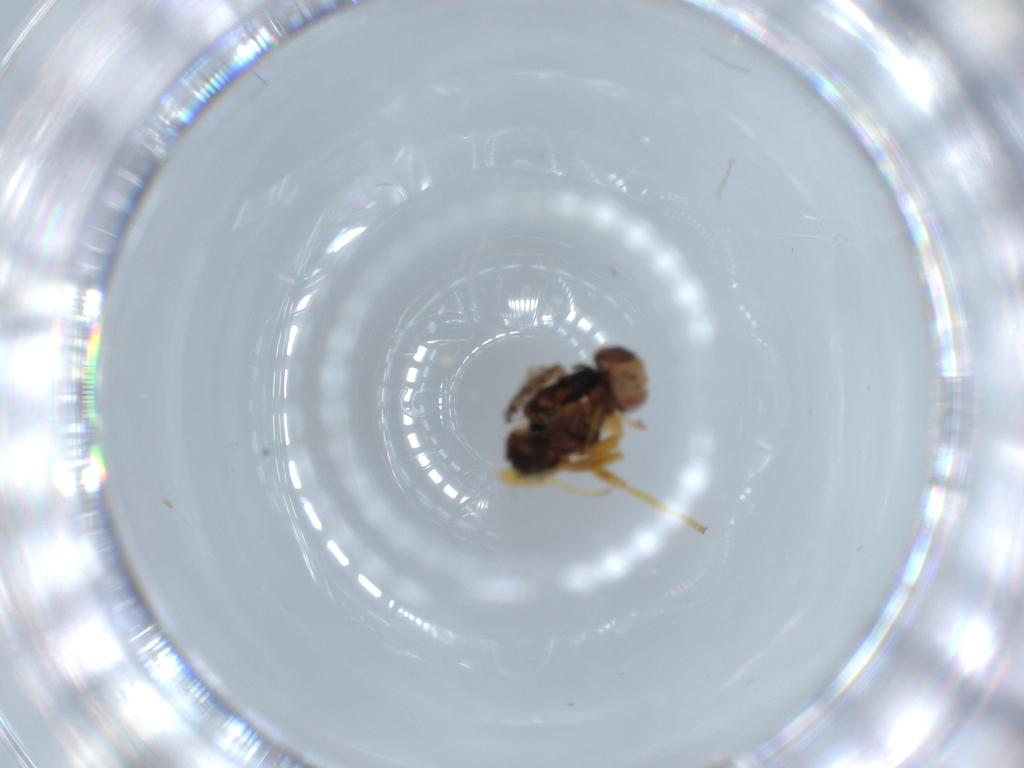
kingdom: Animalia
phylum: Arthropoda
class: Insecta
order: Diptera
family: Chloropidae
